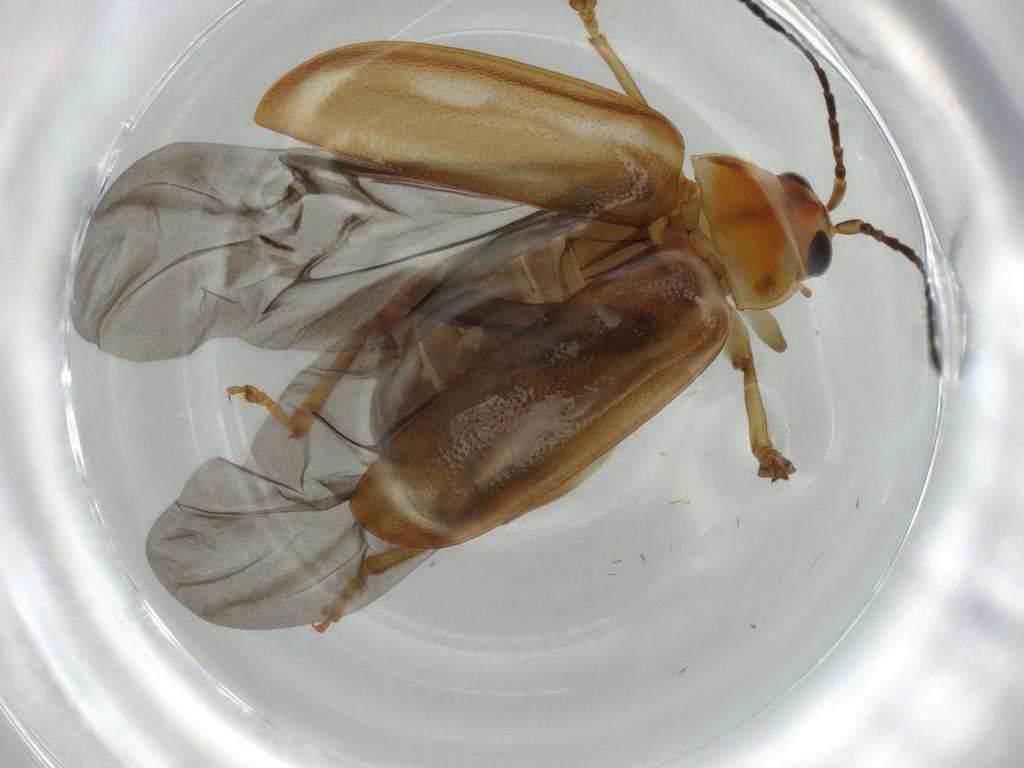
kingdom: Animalia
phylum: Arthropoda
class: Insecta
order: Coleoptera
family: Chrysomelidae
